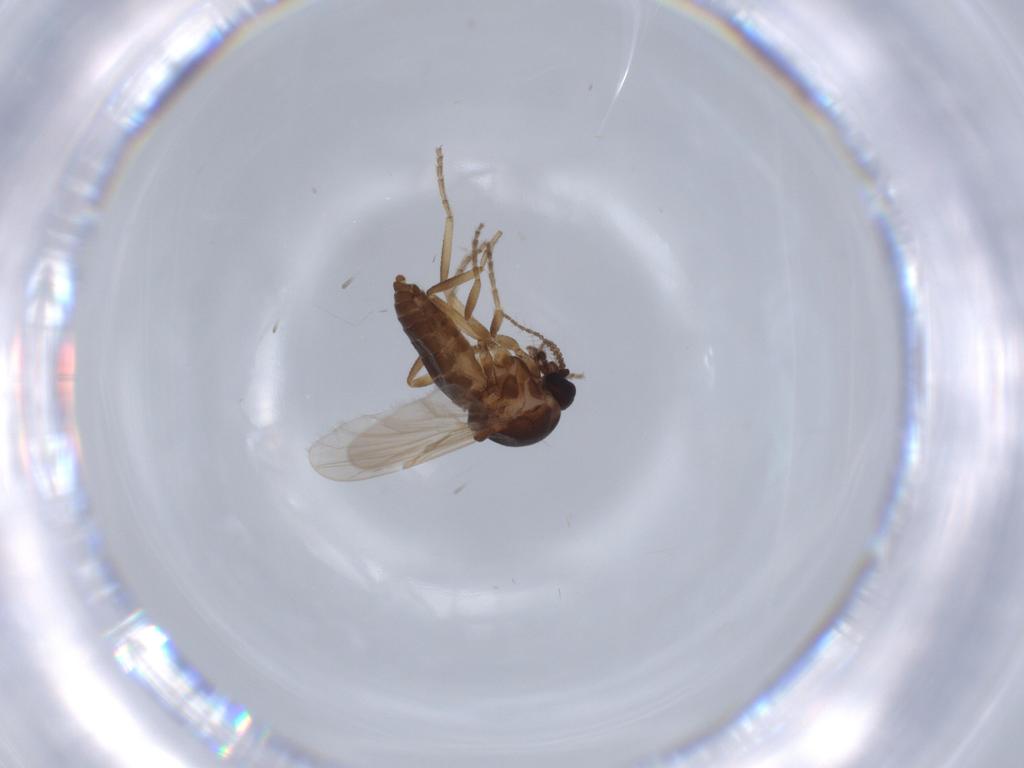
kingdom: Animalia
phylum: Arthropoda
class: Insecta
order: Diptera
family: Ceratopogonidae
